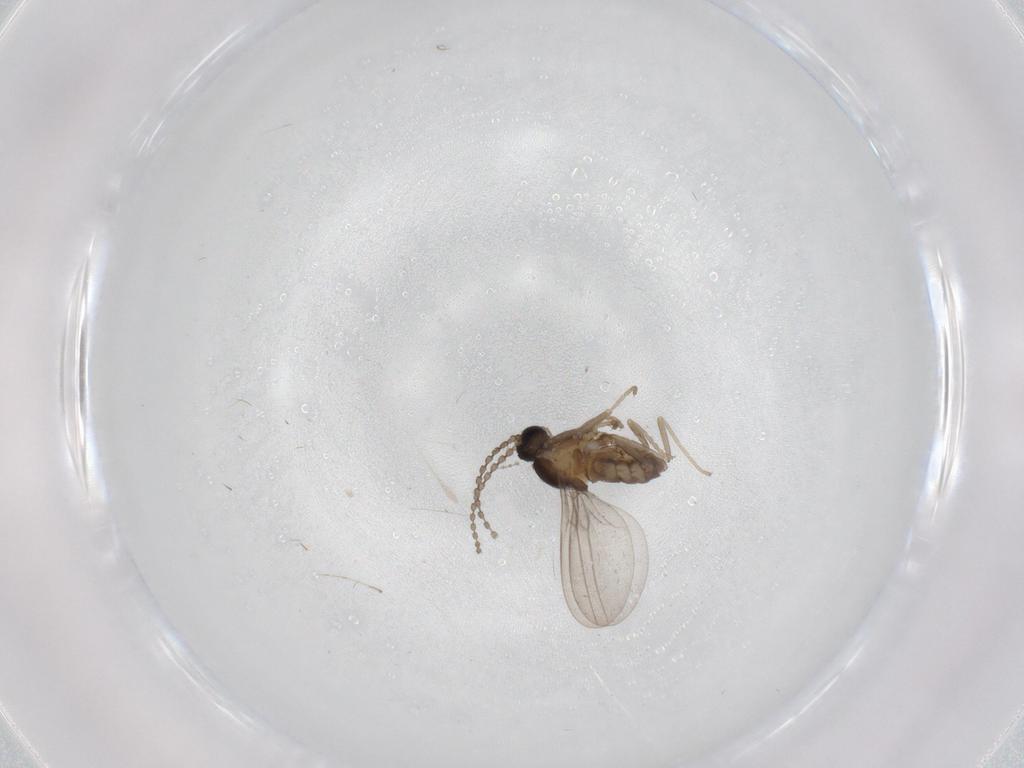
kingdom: Animalia
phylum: Arthropoda
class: Insecta
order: Diptera
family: Cecidomyiidae
